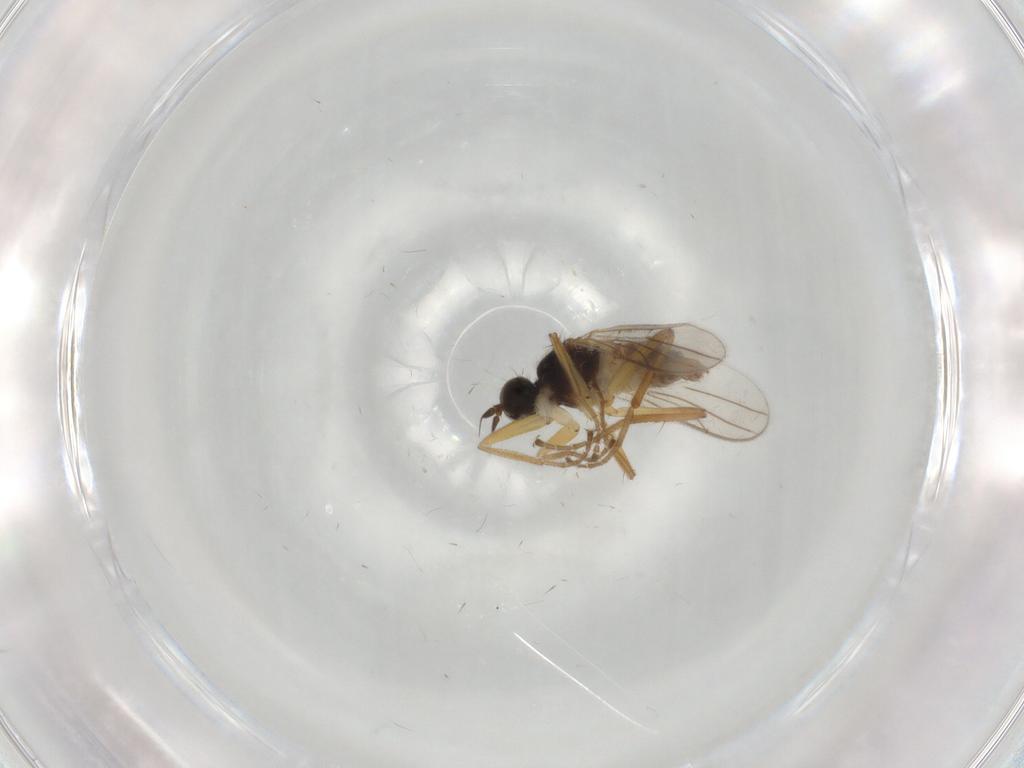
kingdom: Animalia
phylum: Arthropoda
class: Insecta
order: Diptera
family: Hybotidae
